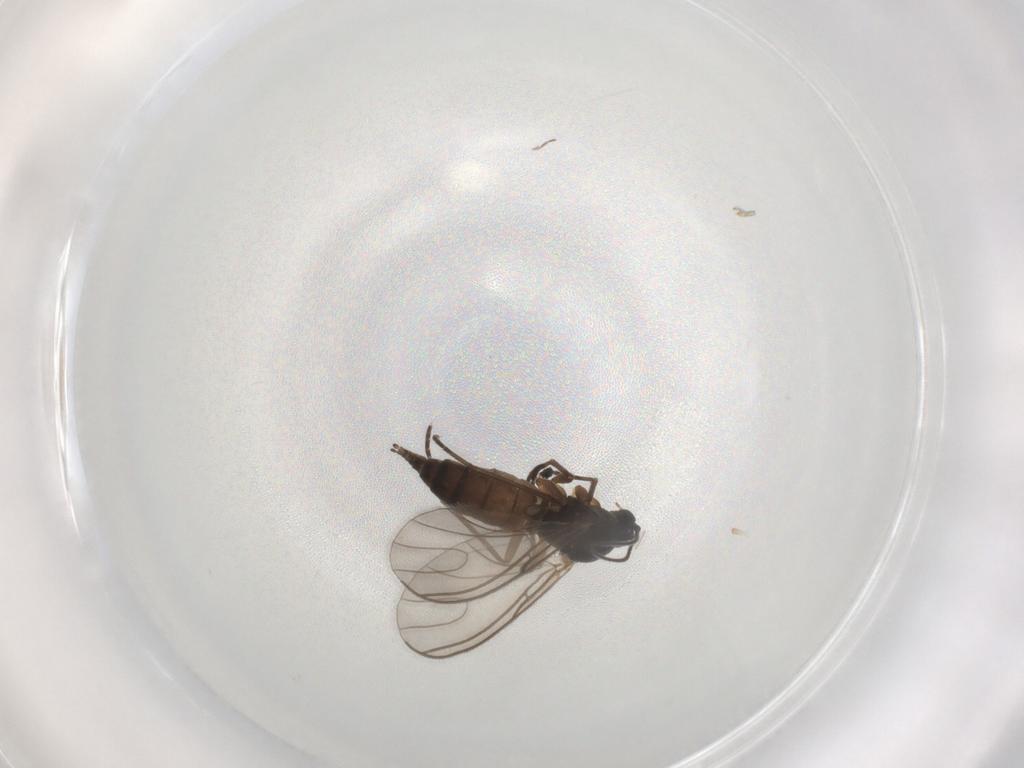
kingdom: Animalia
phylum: Arthropoda
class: Insecta
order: Diptera
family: Sciaridae
